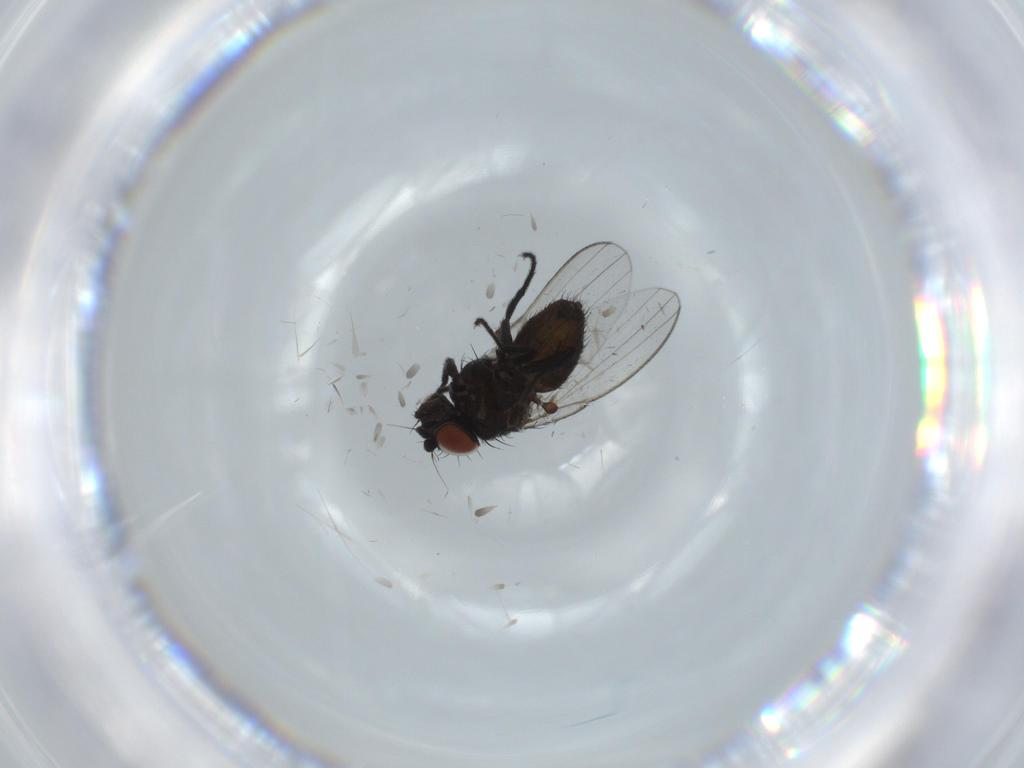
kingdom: Animalia
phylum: Arthropoda
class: Insecta
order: Diptera
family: Milichiidae
